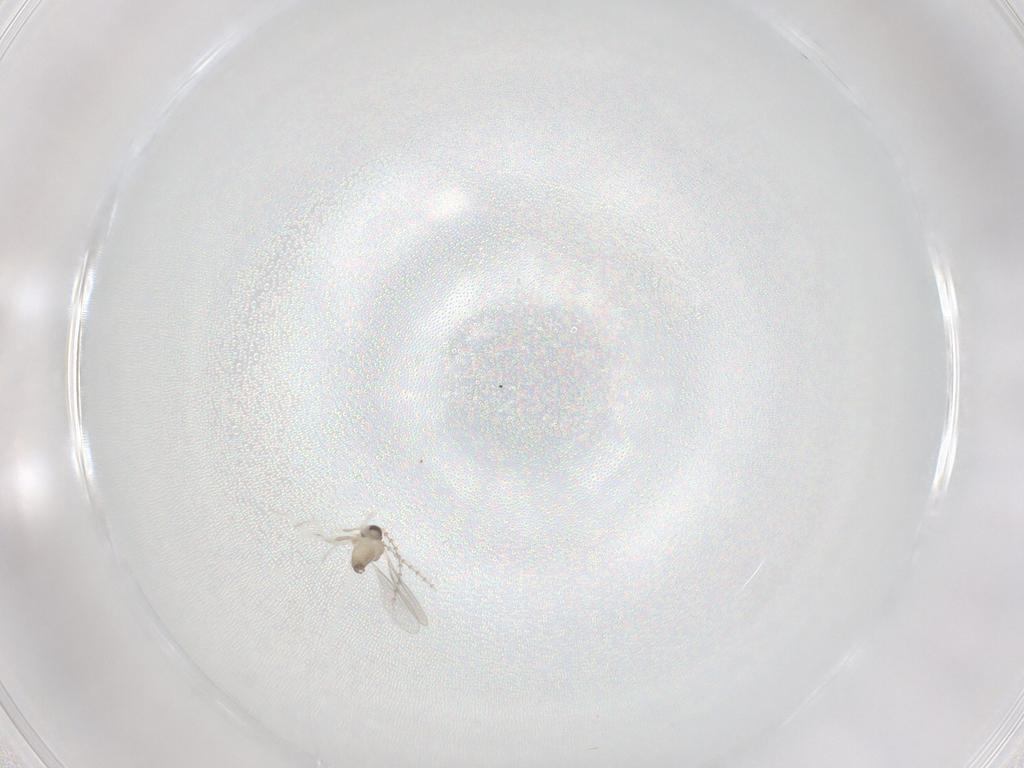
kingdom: Animalia
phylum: Arthropoda
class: Insecta
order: Diptera
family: Cecidomyiidae
